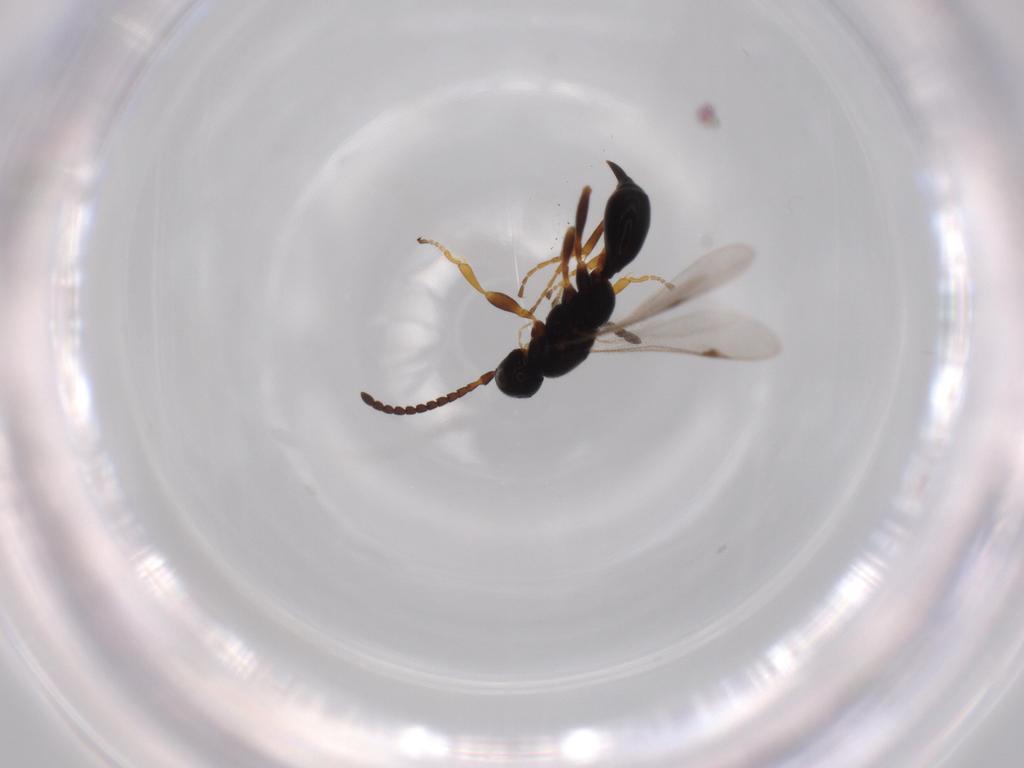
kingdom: Animalia
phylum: Arthropoda
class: Insecta
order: Hymenoptera
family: Proctotrupidae
